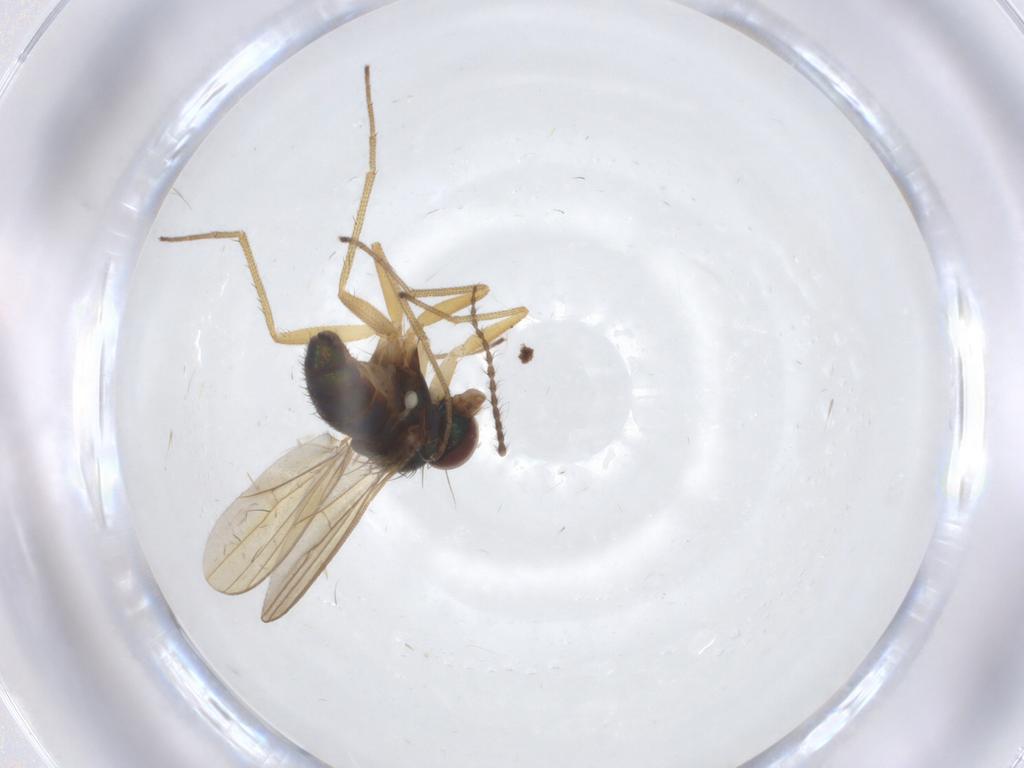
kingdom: Animalia
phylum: Arthropoda
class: Insecta
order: Diptera
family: Dolichopodidae
